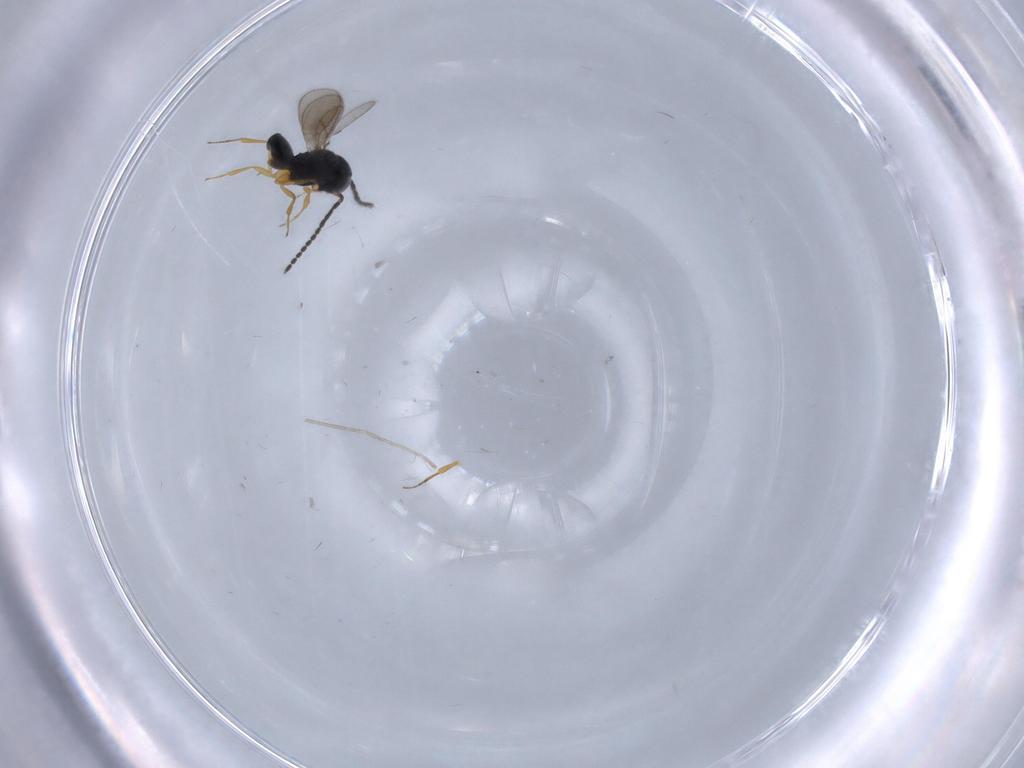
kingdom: Animalia
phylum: Arthropoda
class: Insecta
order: Hymenoptera
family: Scelionidae
